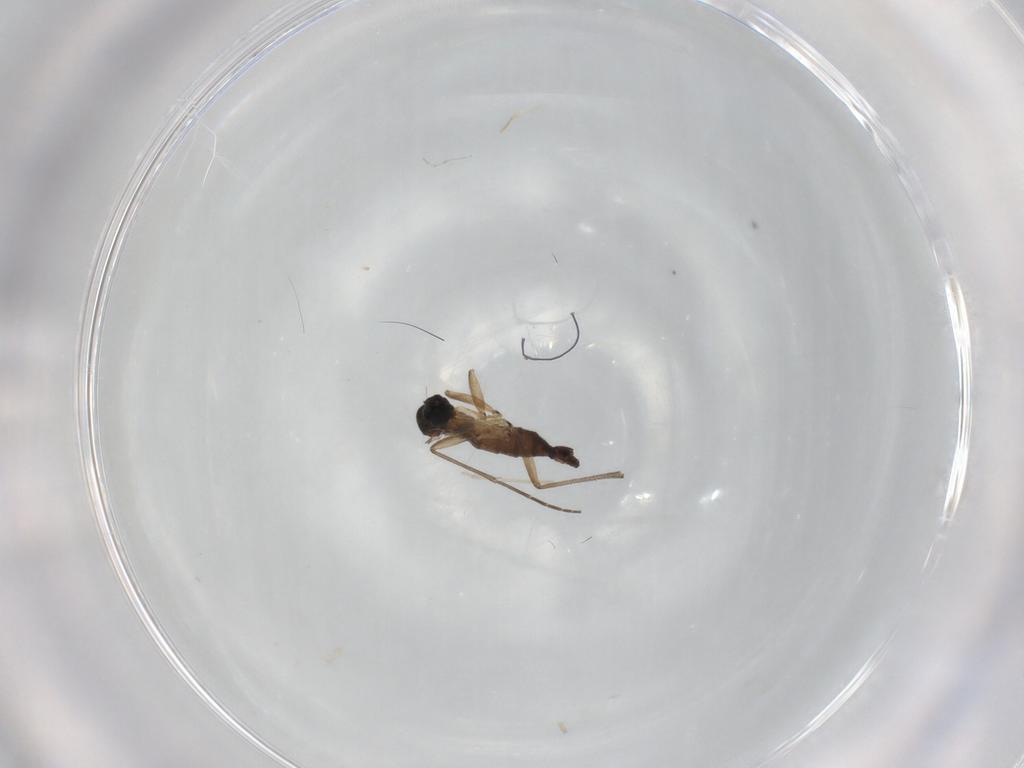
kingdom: Animalia
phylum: Arthropoda
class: Insecta
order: Diptera
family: Sciaridae
